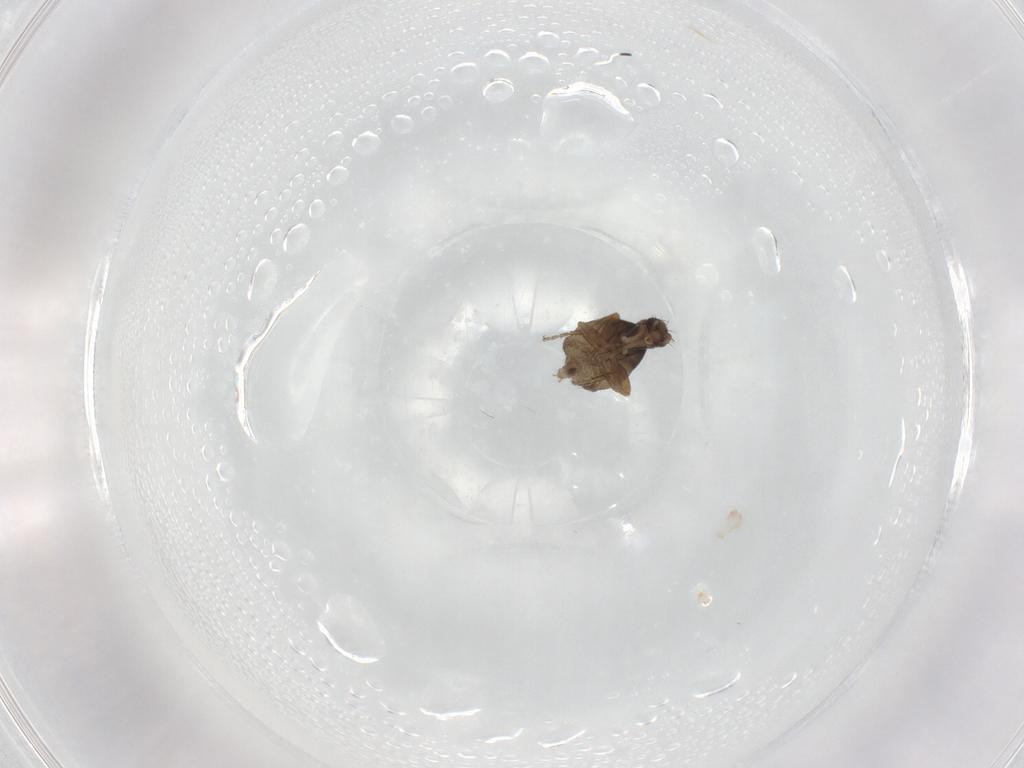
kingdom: Animalia
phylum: Arthropoda
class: Insecta
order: Diptera
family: Phoridae
